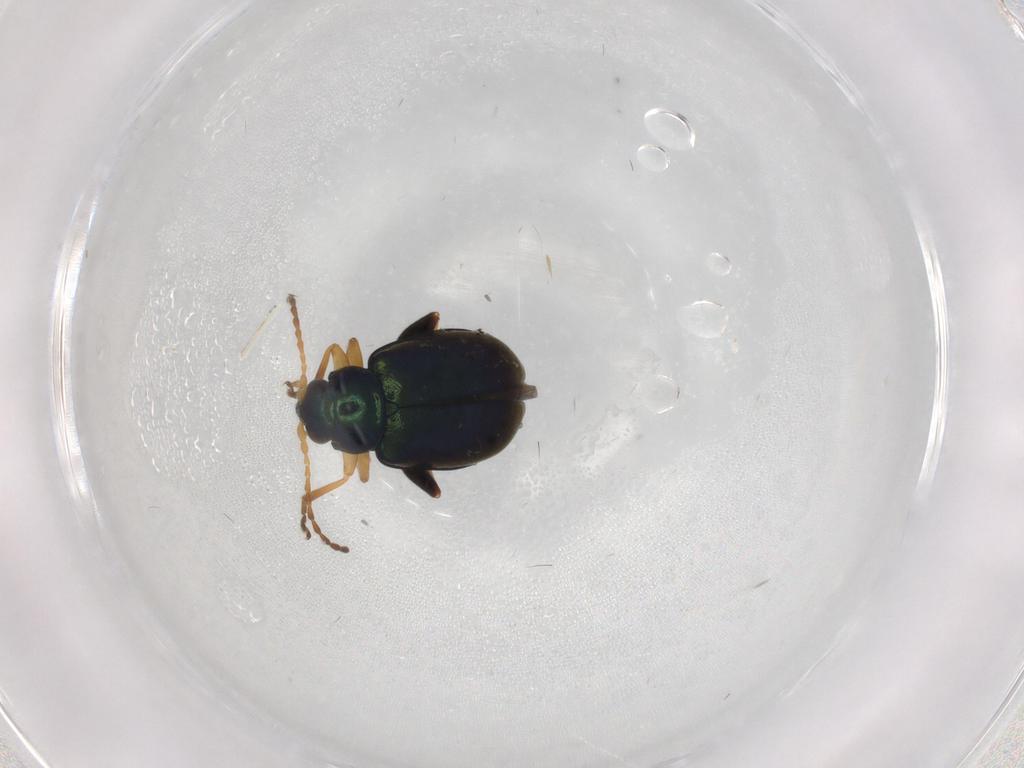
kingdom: Animalia
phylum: Arthropoda
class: Insecta
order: Coleoptera
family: Chrysomelidae
